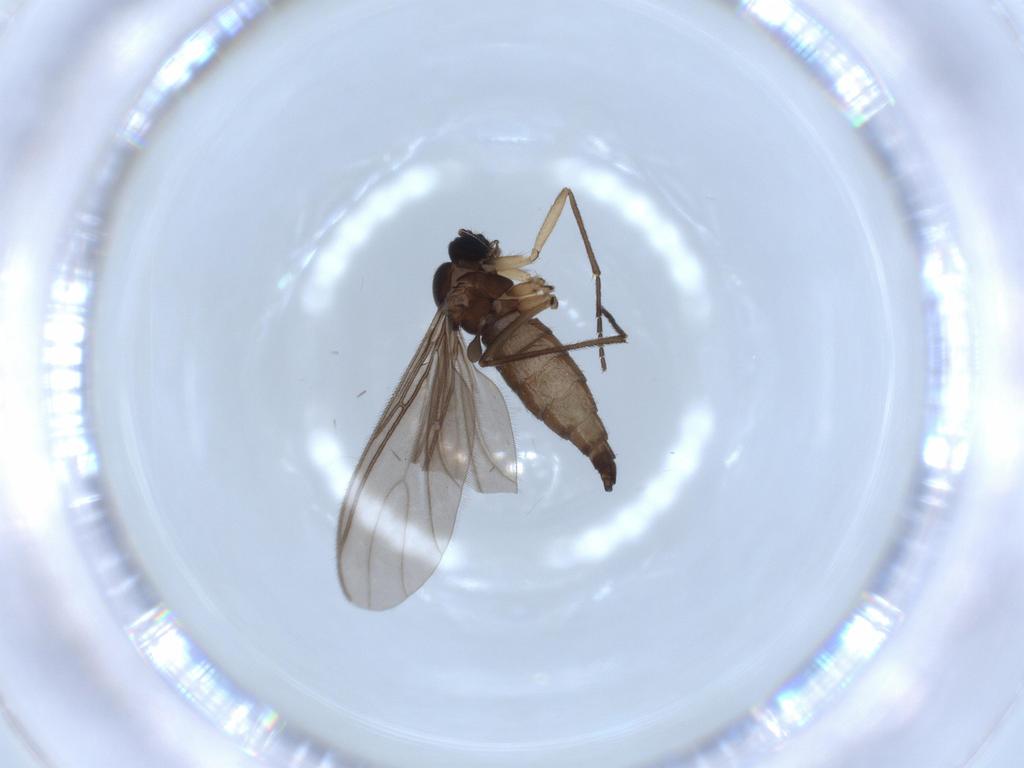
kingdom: Animalia
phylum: Arthropoda
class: Insecta
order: Diptera
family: Sciaridae
